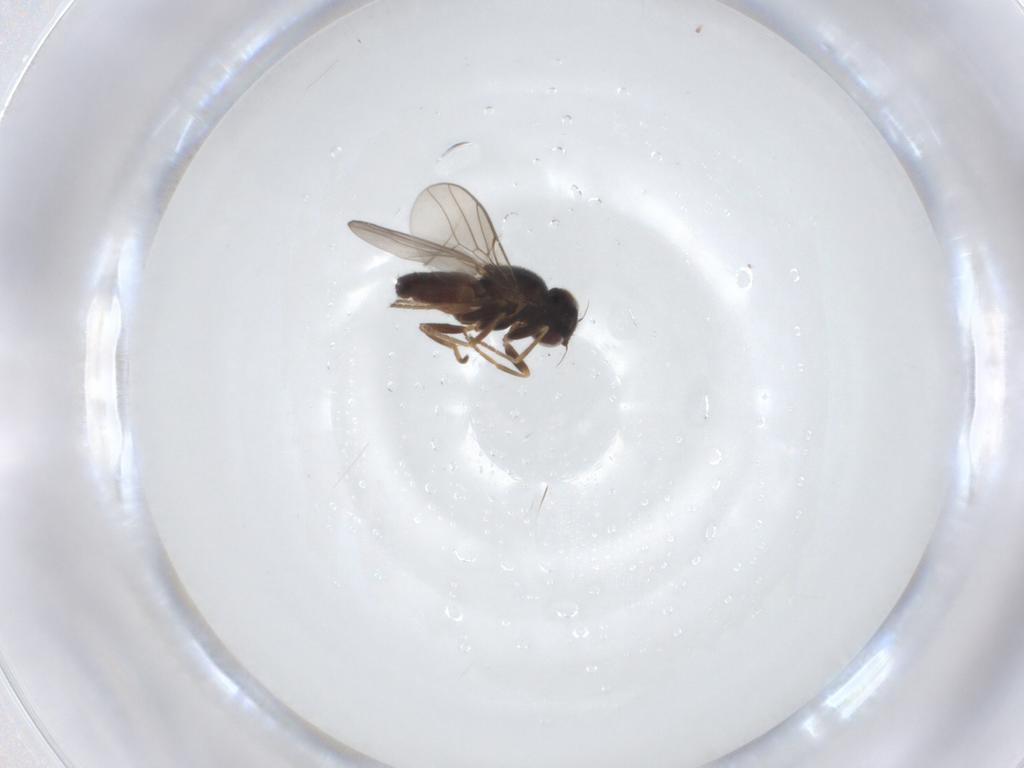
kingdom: Animalia
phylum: Arthropoda
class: Insecta
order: Diptera
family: Chloropidae
